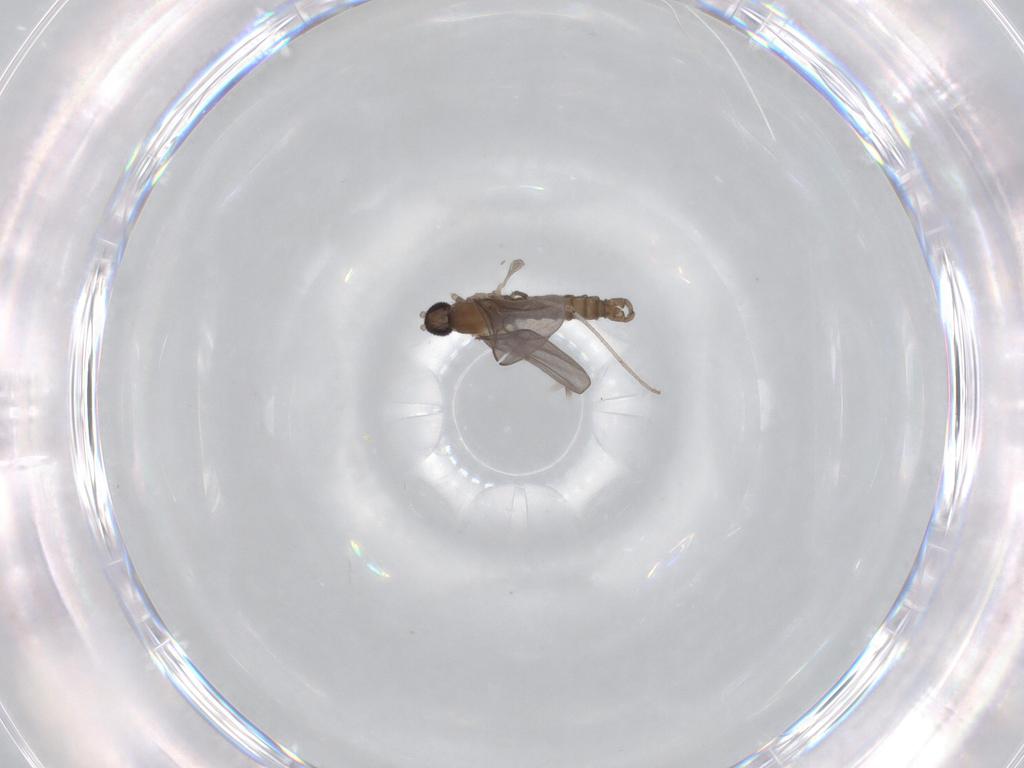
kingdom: Animalia
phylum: Arthropoda
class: Insecta
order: Diptera
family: Cecidomyiidae
